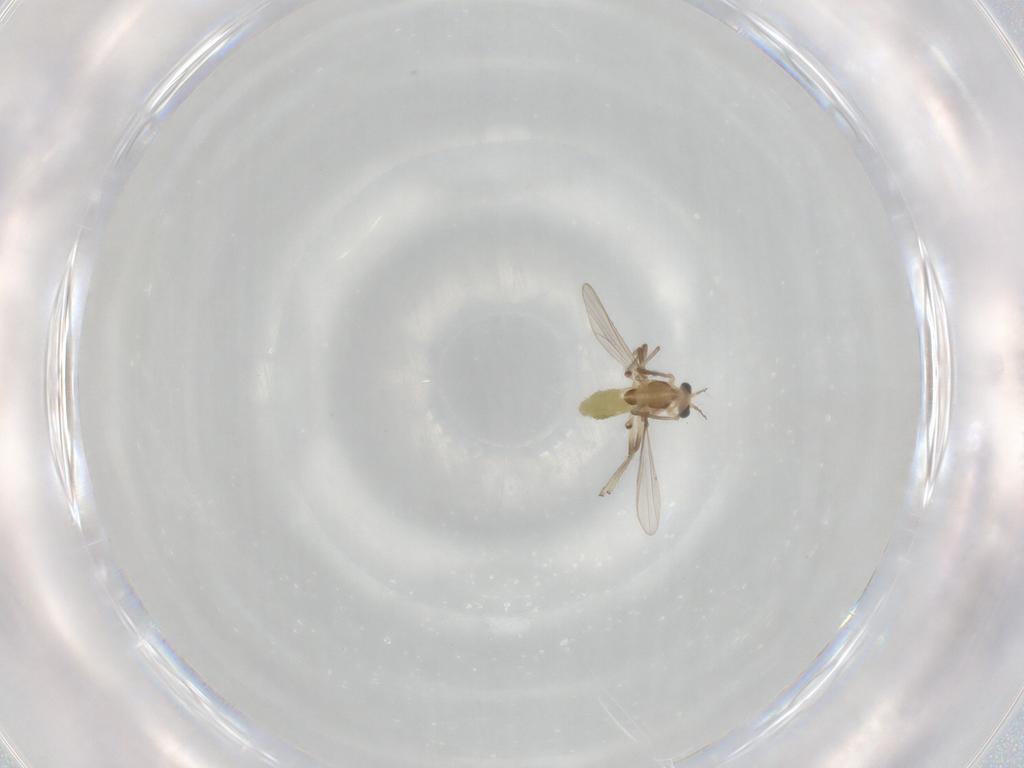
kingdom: Animalia
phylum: Arthropoda
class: Insecta
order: Diptera
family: Chironomidae
